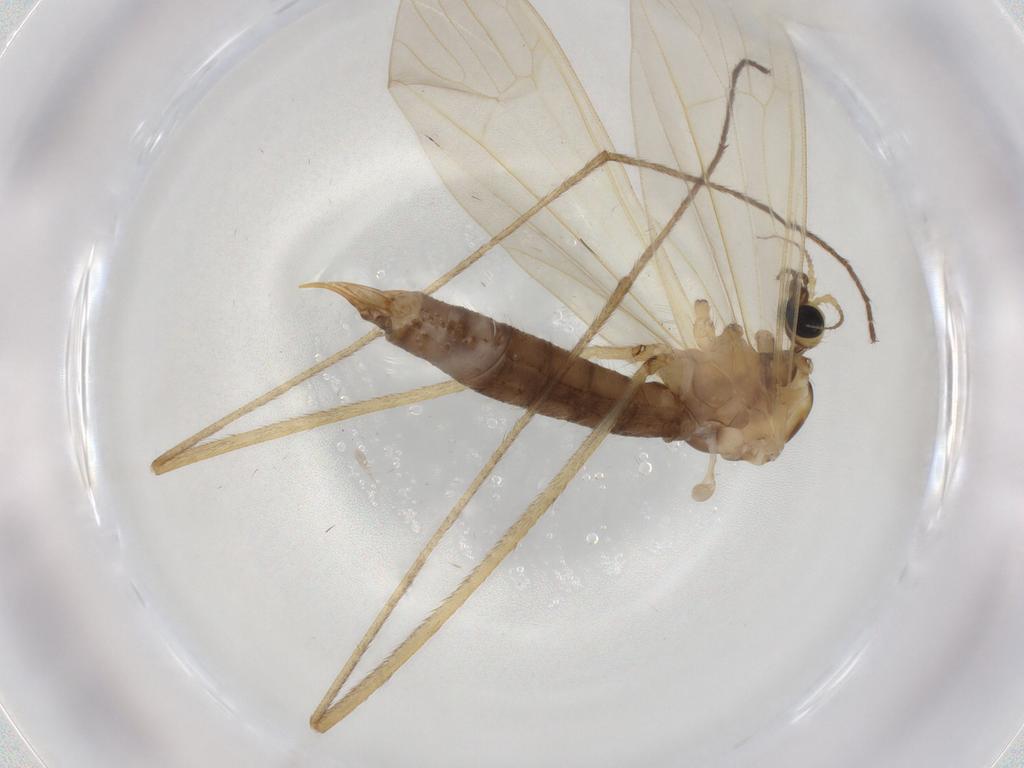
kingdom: Animalia
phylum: Arthropoda
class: Insecta
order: Diptera
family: Limoniidae
